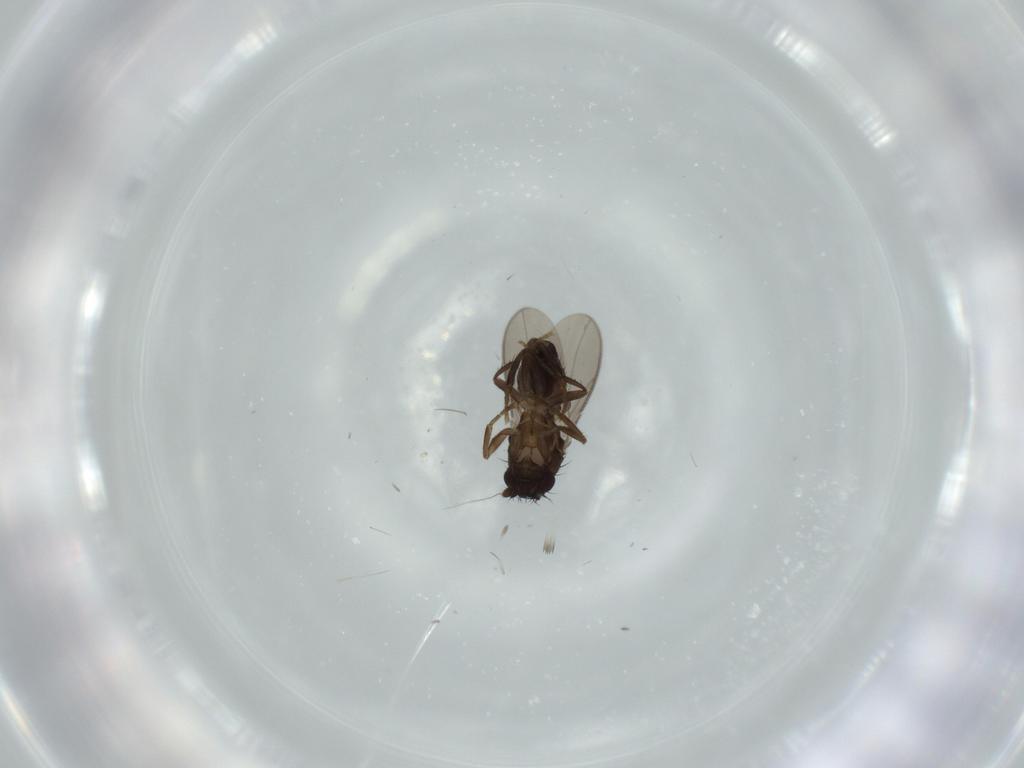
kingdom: Animalia
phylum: Arthropoda
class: Insecta
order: Diptera
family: Sphaeroceridae
